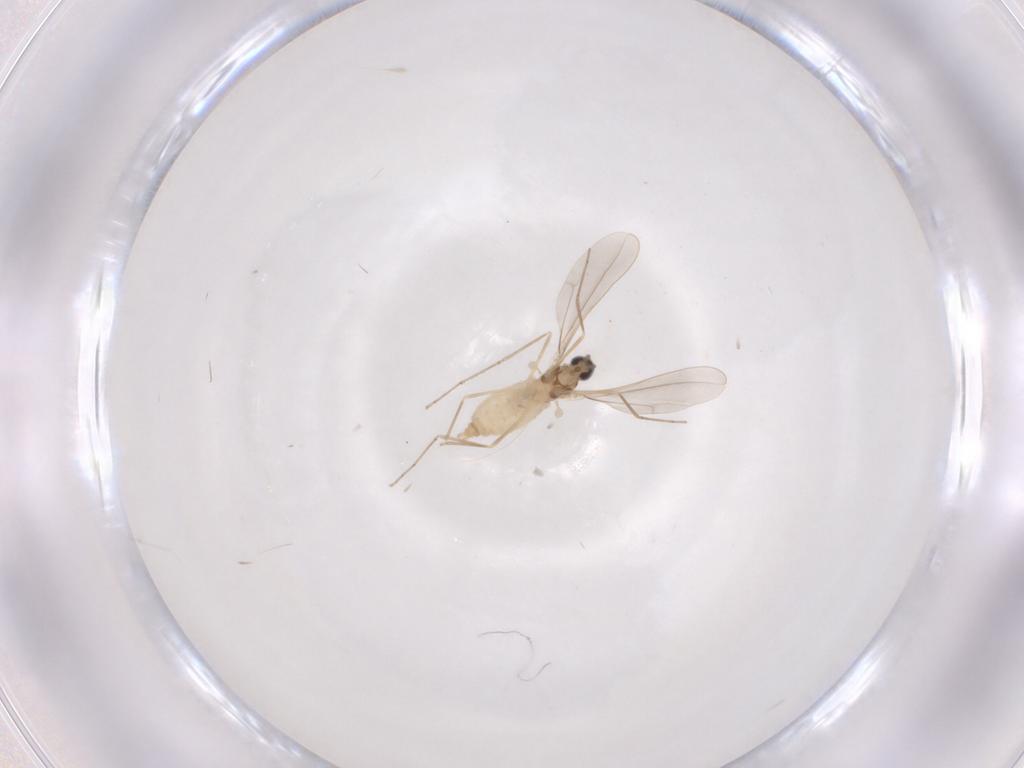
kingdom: Animalia
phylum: Arthropoda
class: Insecta
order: Diptera
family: Cecidomyiidae
